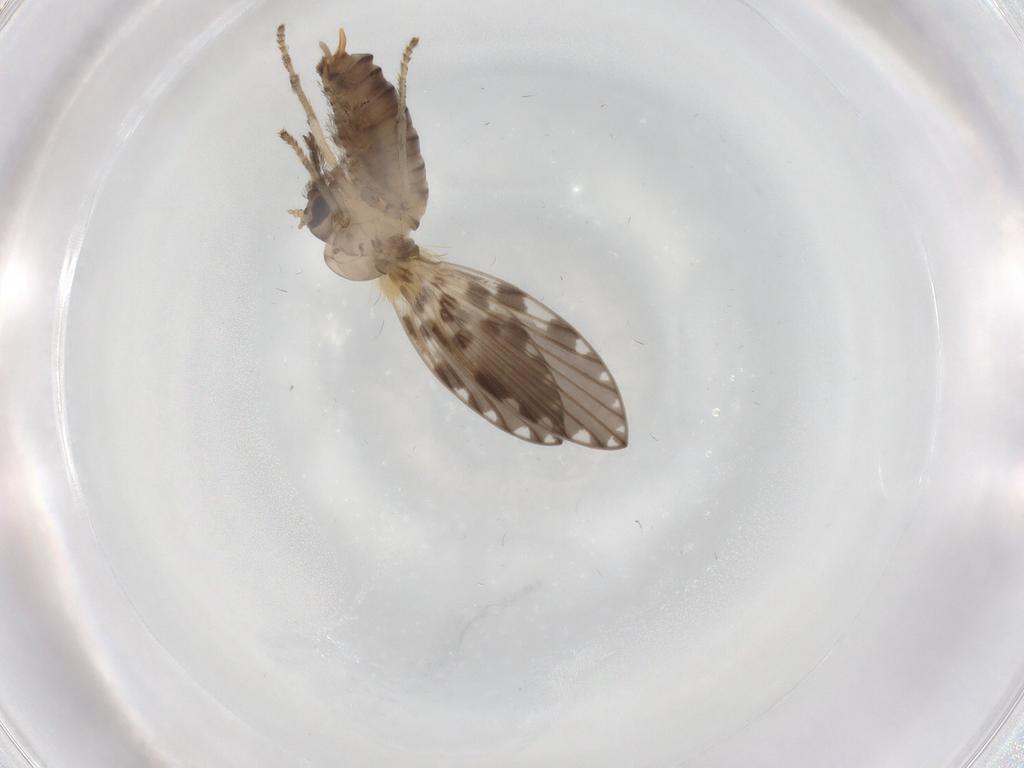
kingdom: Animalia
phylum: Arthropoda
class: Insecta
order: Diptera
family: Psychodidae
